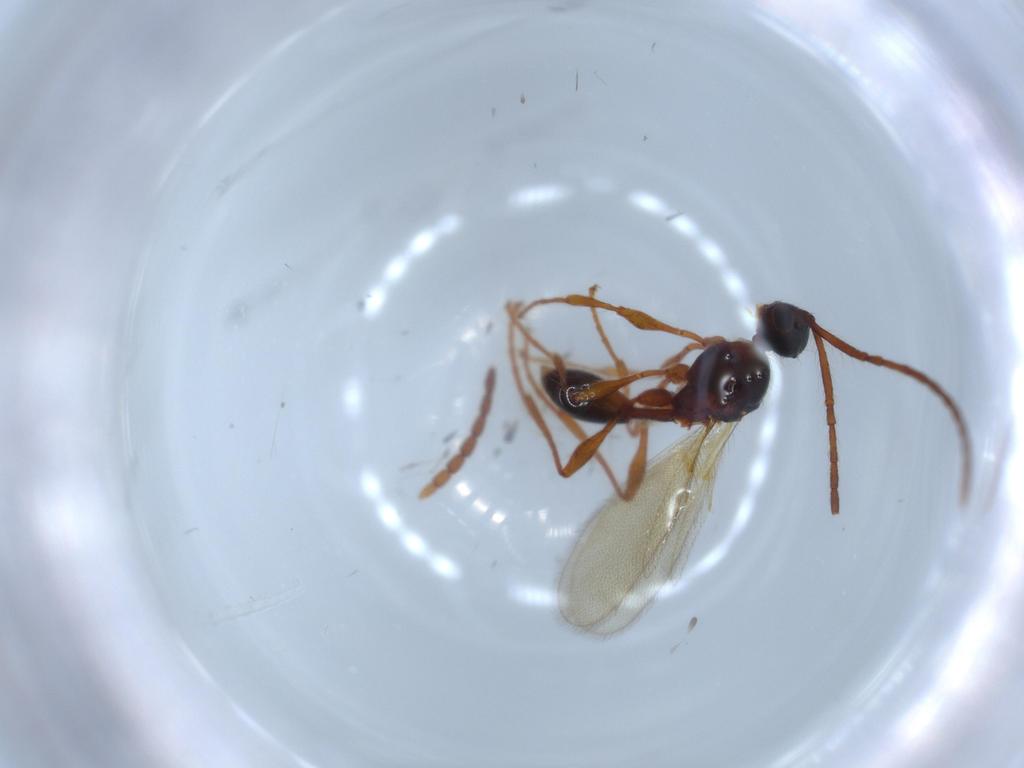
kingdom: Animalia
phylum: Arthropoda
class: Insecta
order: Hymenoptera
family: Diapriidae
